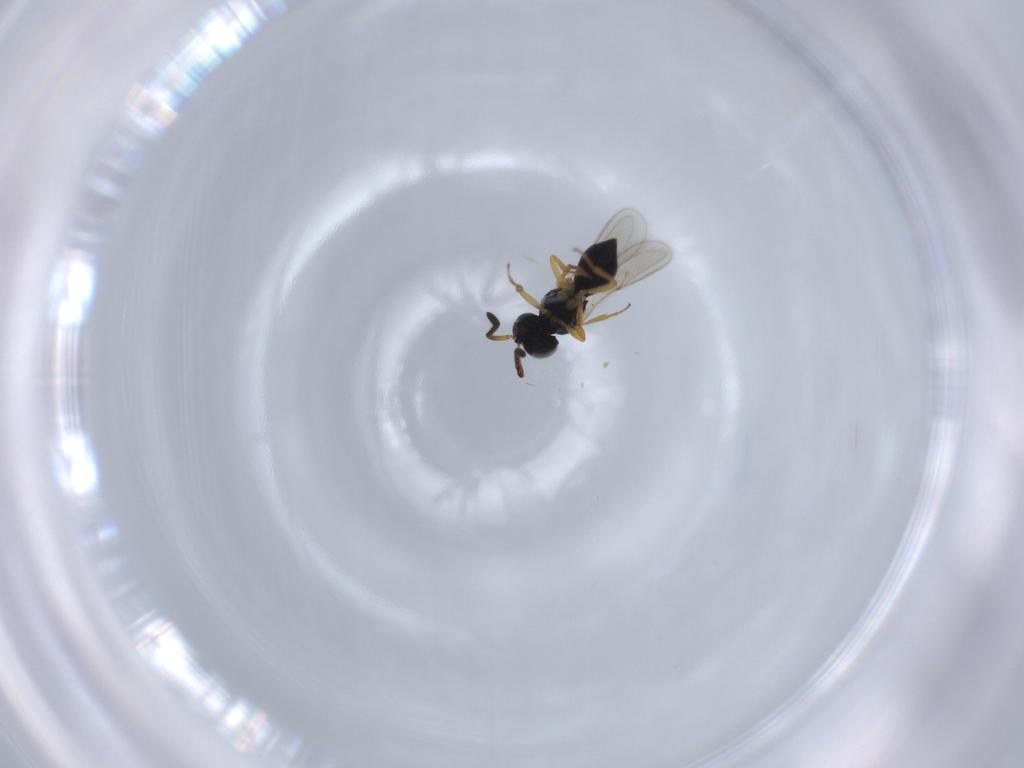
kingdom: Animalia
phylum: Arthropoda
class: Insecta
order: Hymenoptera
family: Scelionidae
